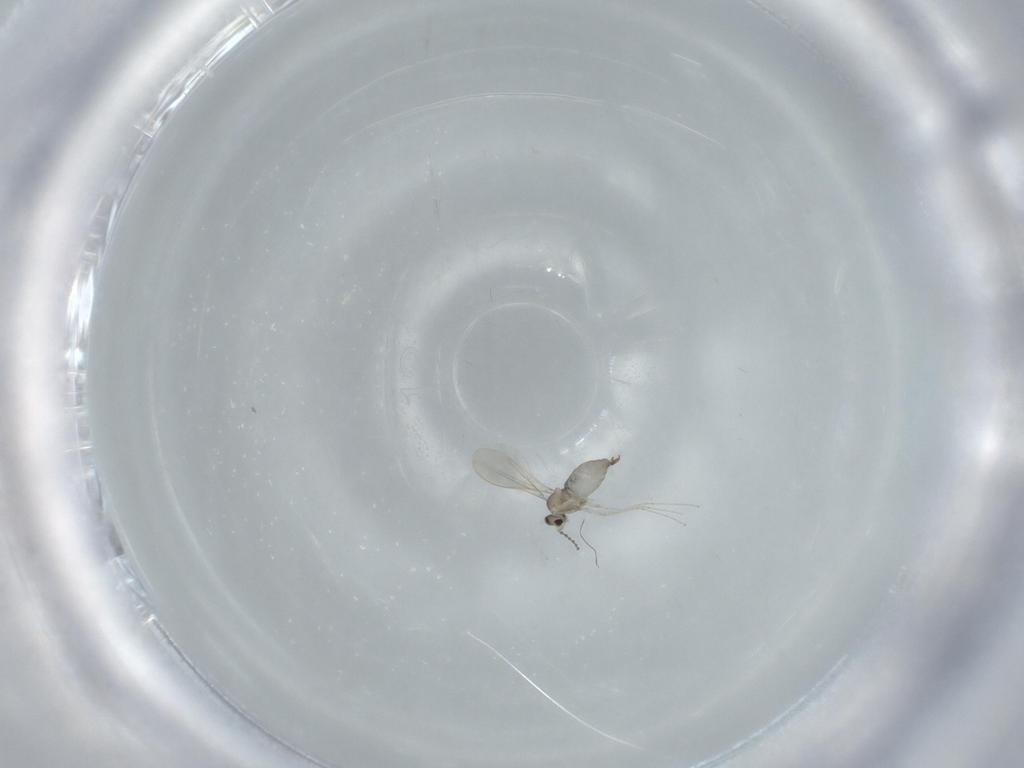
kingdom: Animalia
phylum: Arthropoda
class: Insecta
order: Diptera
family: Cecidomyiidae
